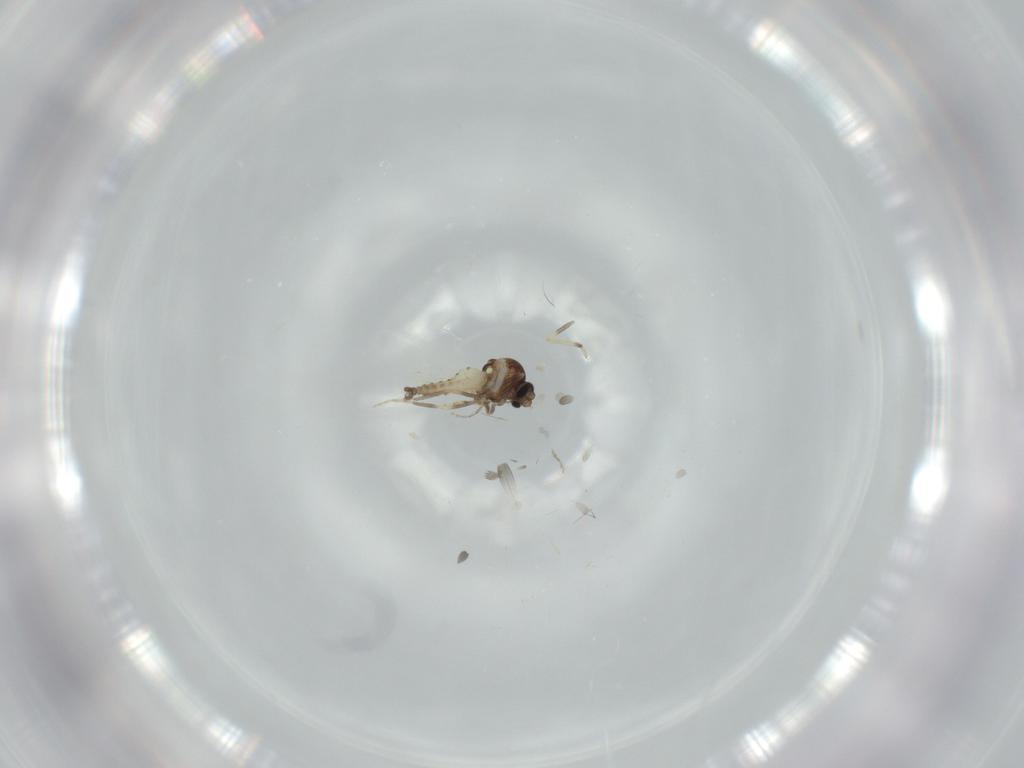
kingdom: Animalia
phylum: Arthropoda
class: Insecta
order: Diptera
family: Ceratopogonidae
